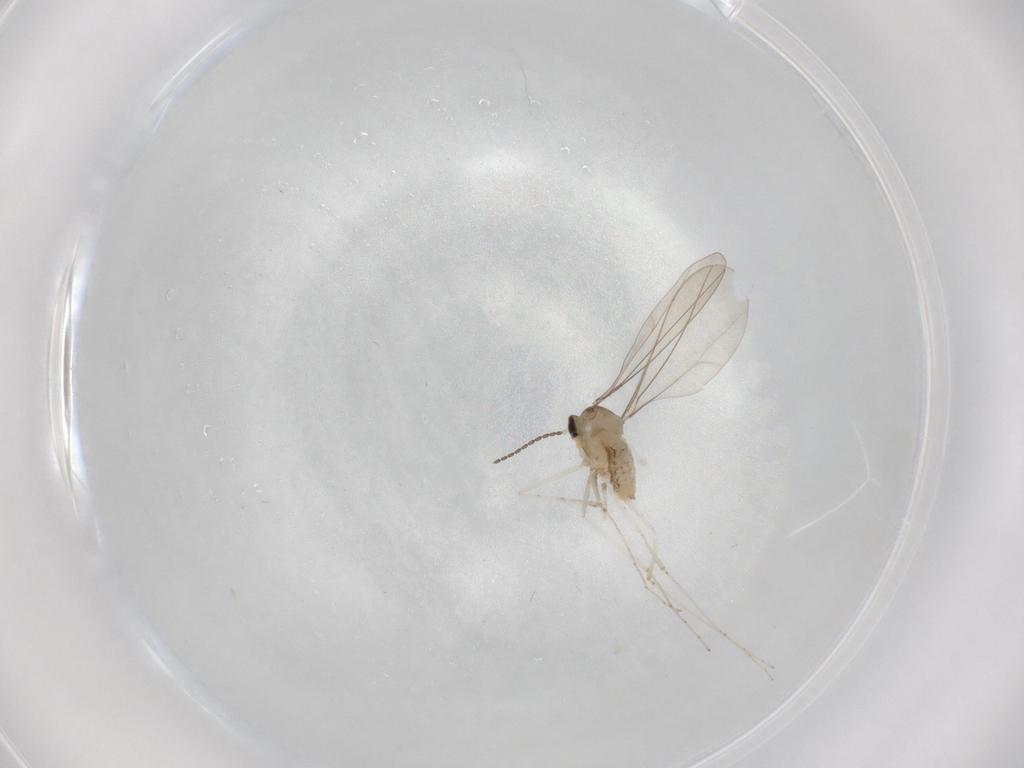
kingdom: Animalia
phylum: Arthropoda
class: Insecta
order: Diptera
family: Cecidomyiidae
